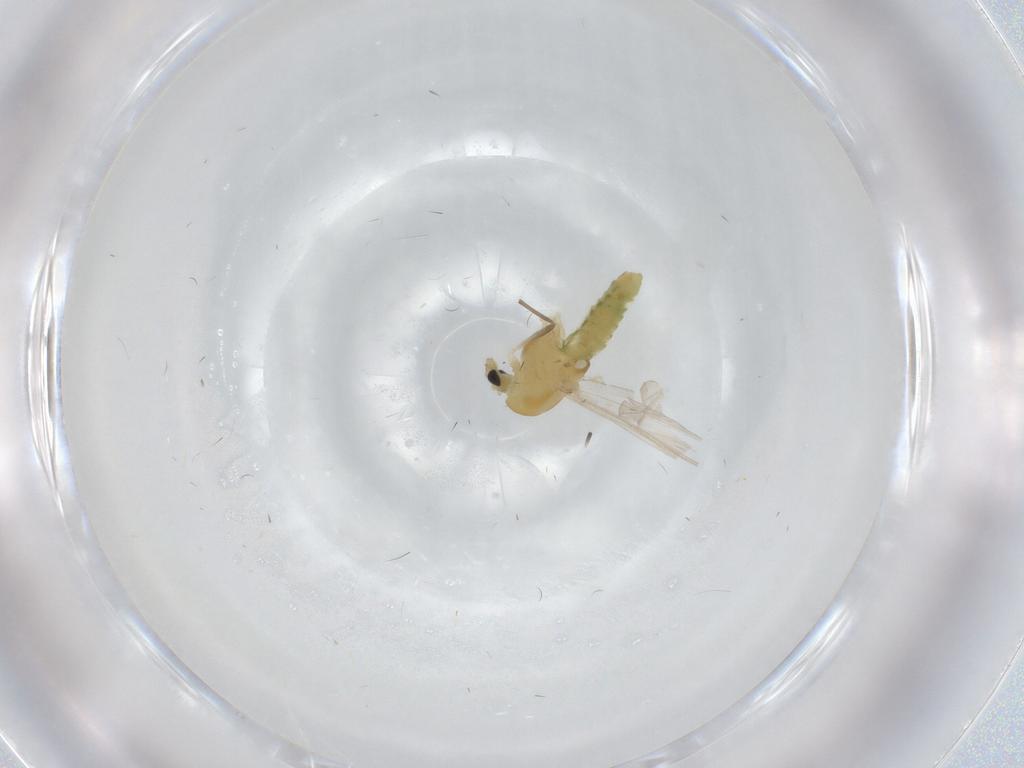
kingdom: Animalia
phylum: Arthropoda
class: Insecta
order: Diptera
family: Chironomidae
